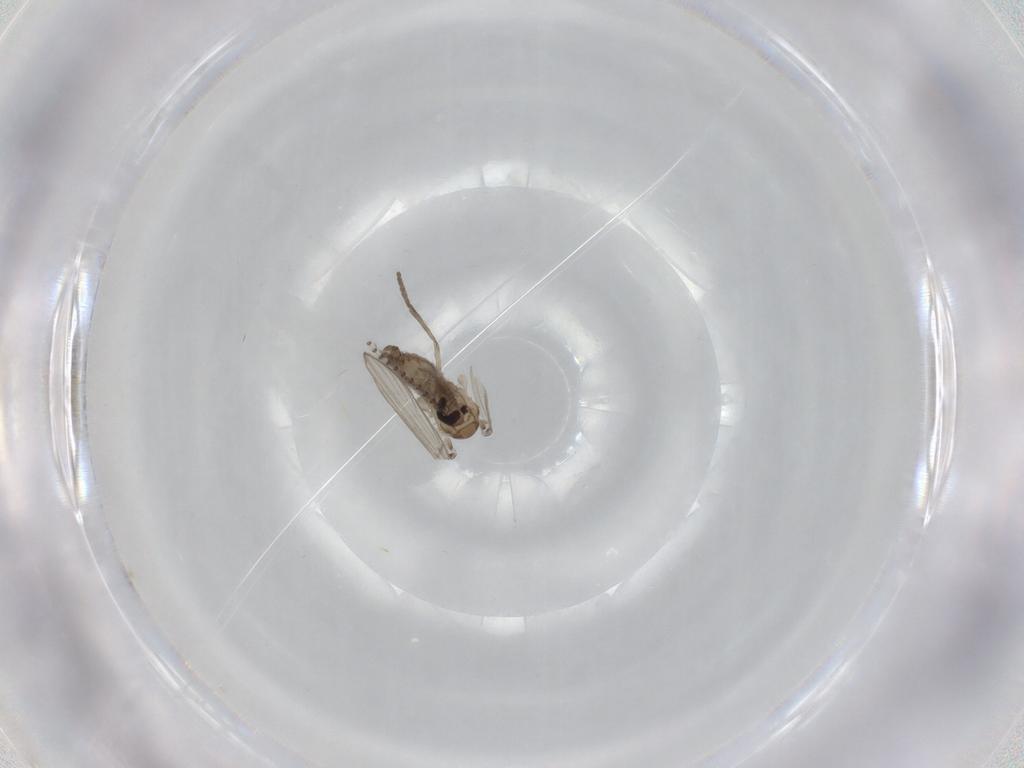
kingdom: Animalia
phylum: Arthropoda
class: Insecta
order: Diptera
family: Psychodidae
